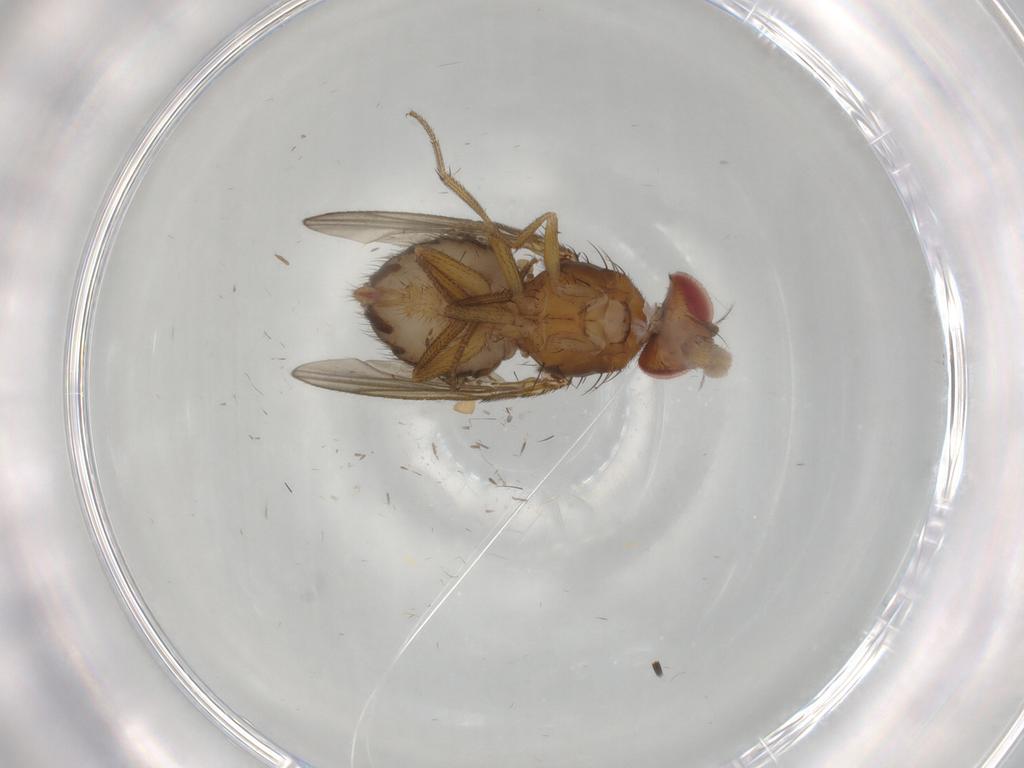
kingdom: Animalia
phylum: Arthropoda
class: Insecta
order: Diptera
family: Drosophilidae
